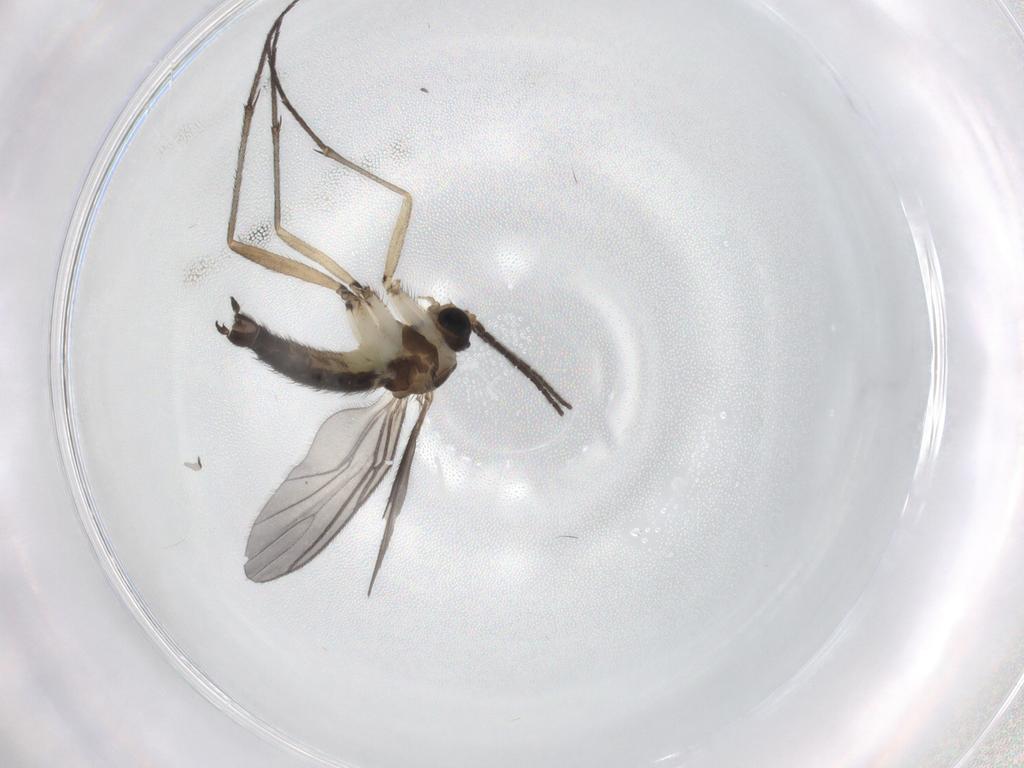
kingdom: Animalia
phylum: Arthropoda
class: Insecta
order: Diptera
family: Sciaridae
